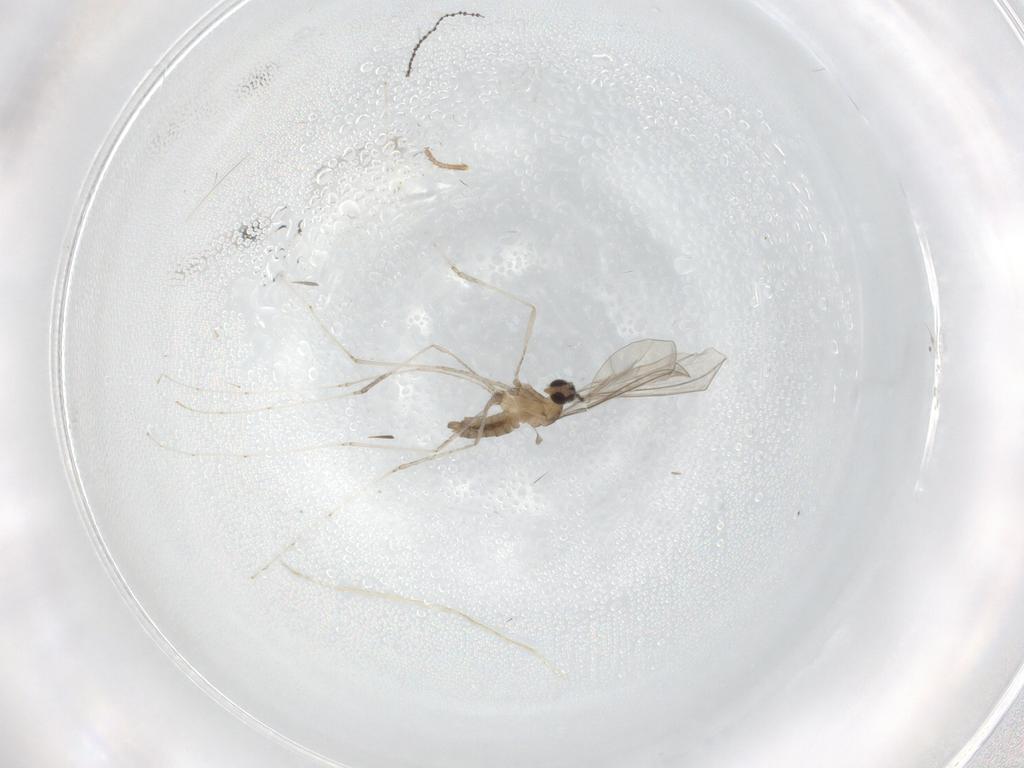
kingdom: Animalia
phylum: Arthropoda
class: Insecta
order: Diptera
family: Cecidomyiidae
